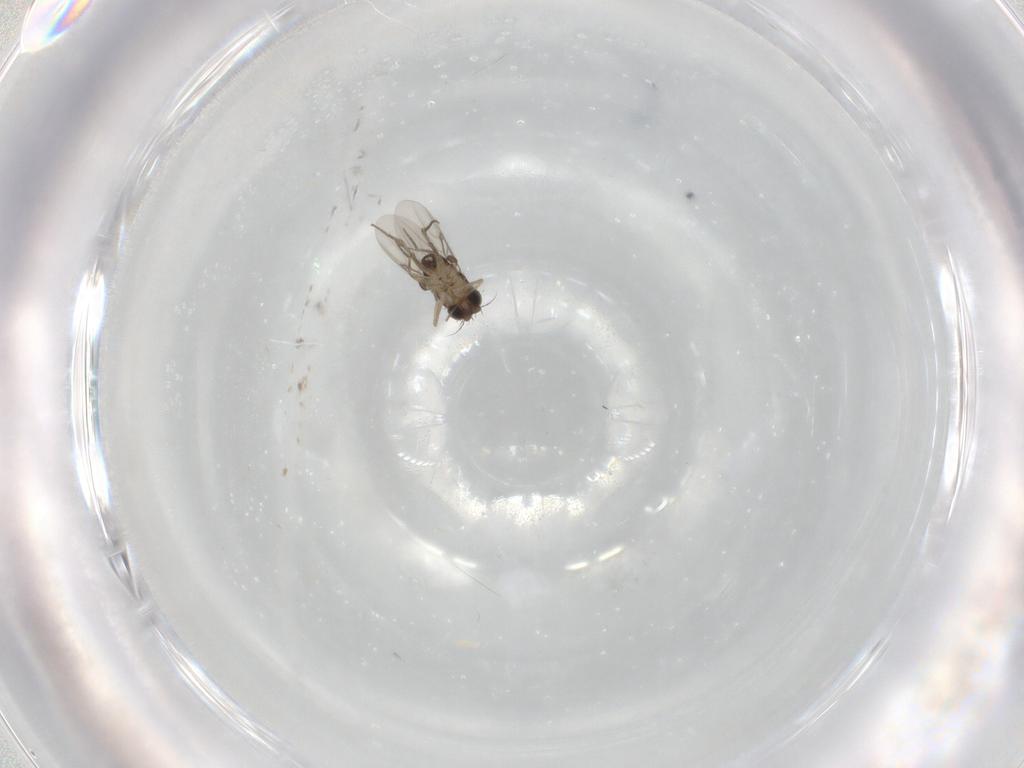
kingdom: Animalia
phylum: Arthropoda
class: Insecta
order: Diptera
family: Phoridae
